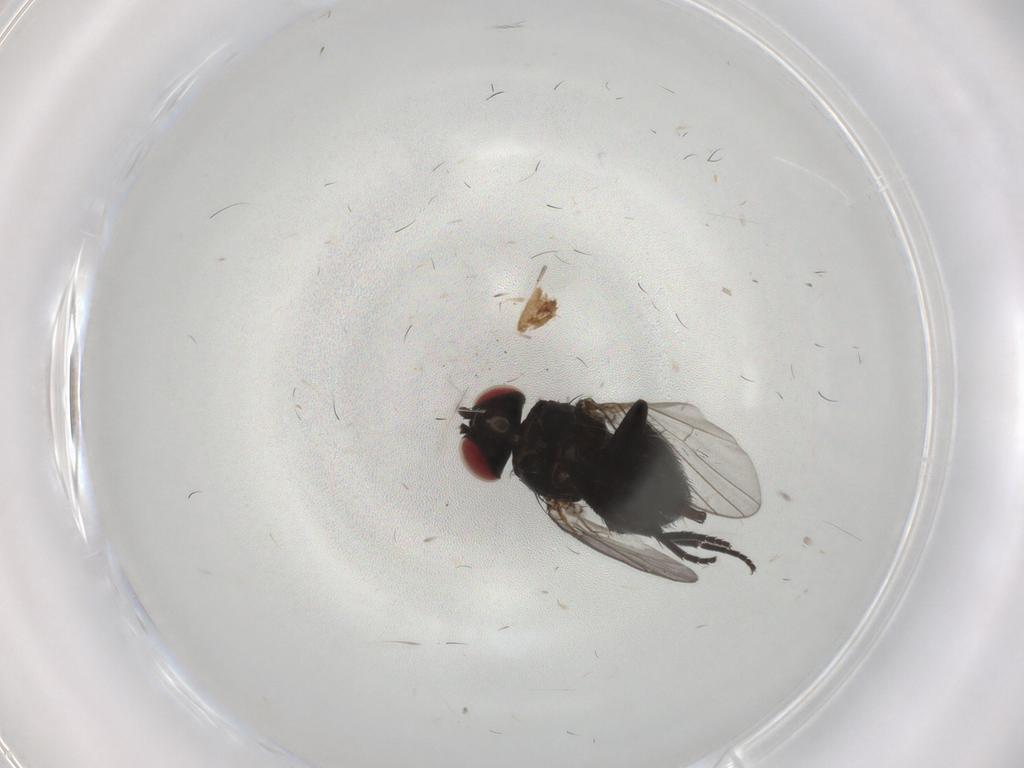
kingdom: Animalia
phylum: Arthropoda
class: Insecta
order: Diptera
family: Agromyzidae
